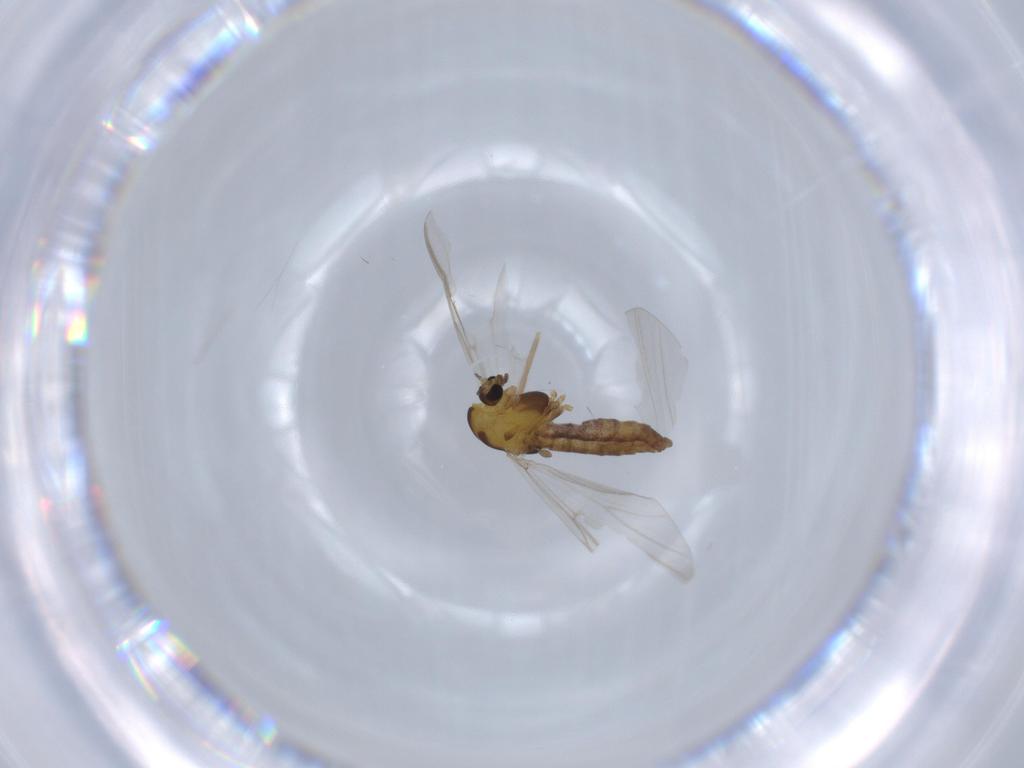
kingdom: Animalia
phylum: Arthropoda
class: Insecta
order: Diptera
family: Chironomidae
